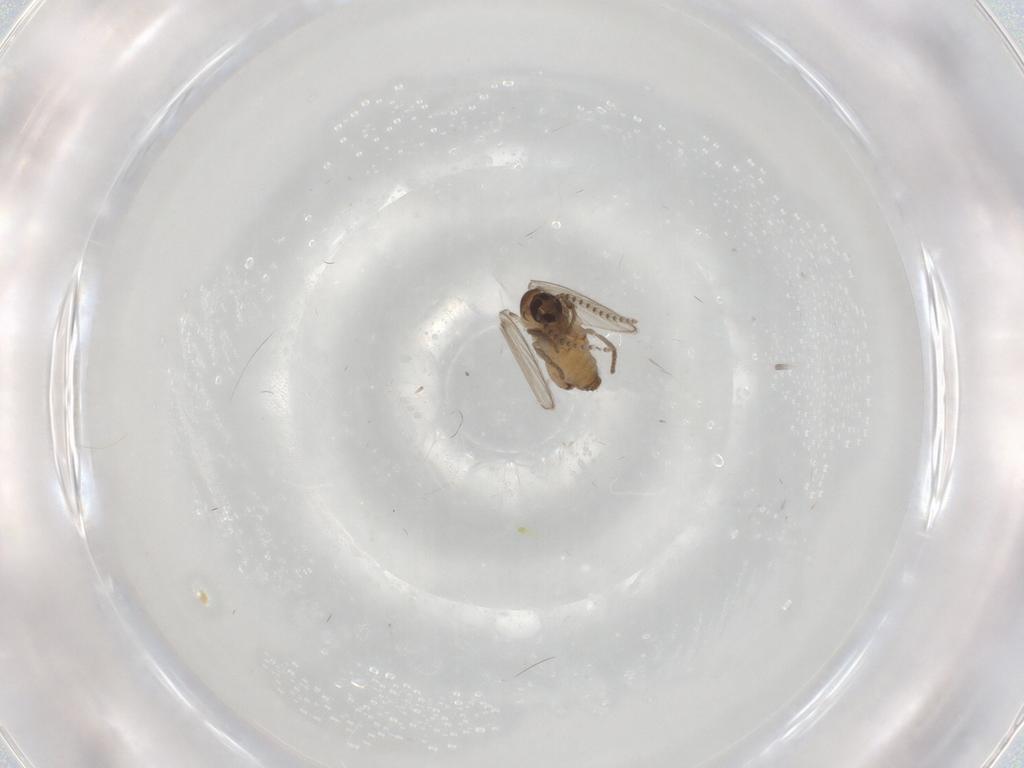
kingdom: Animalia
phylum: Arthropoda
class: Insecta
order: Diptera
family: Psychodidae
